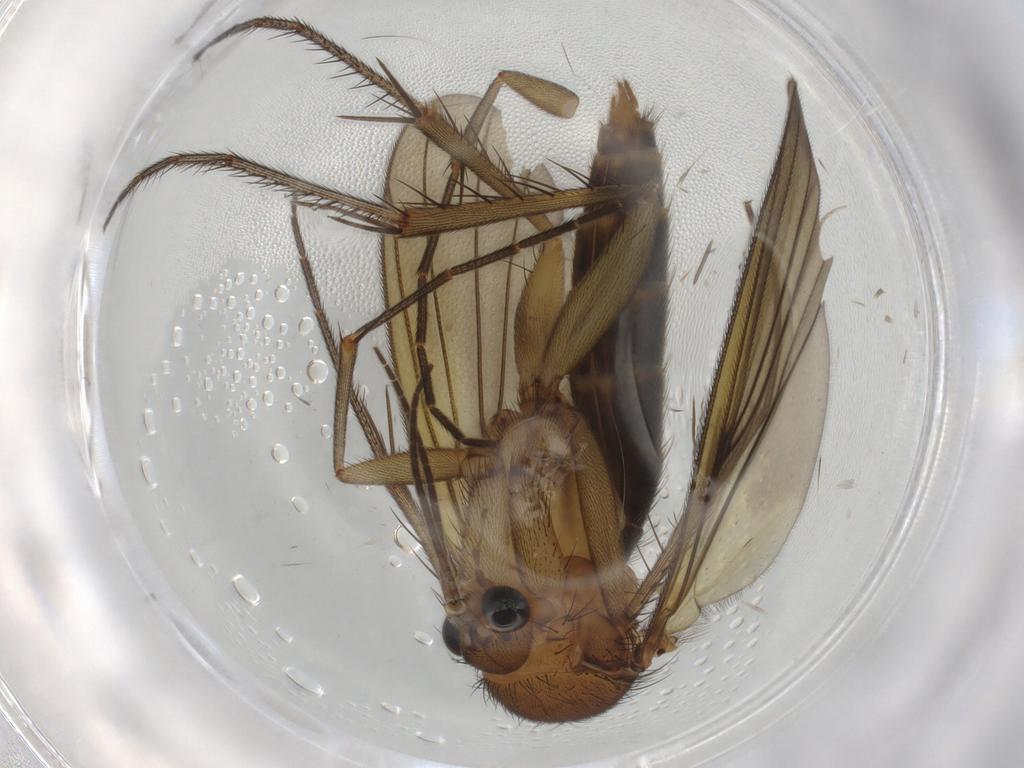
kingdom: Animalia
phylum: Arthropoda
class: Insecta
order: Diptera
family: Mycetophilidae
